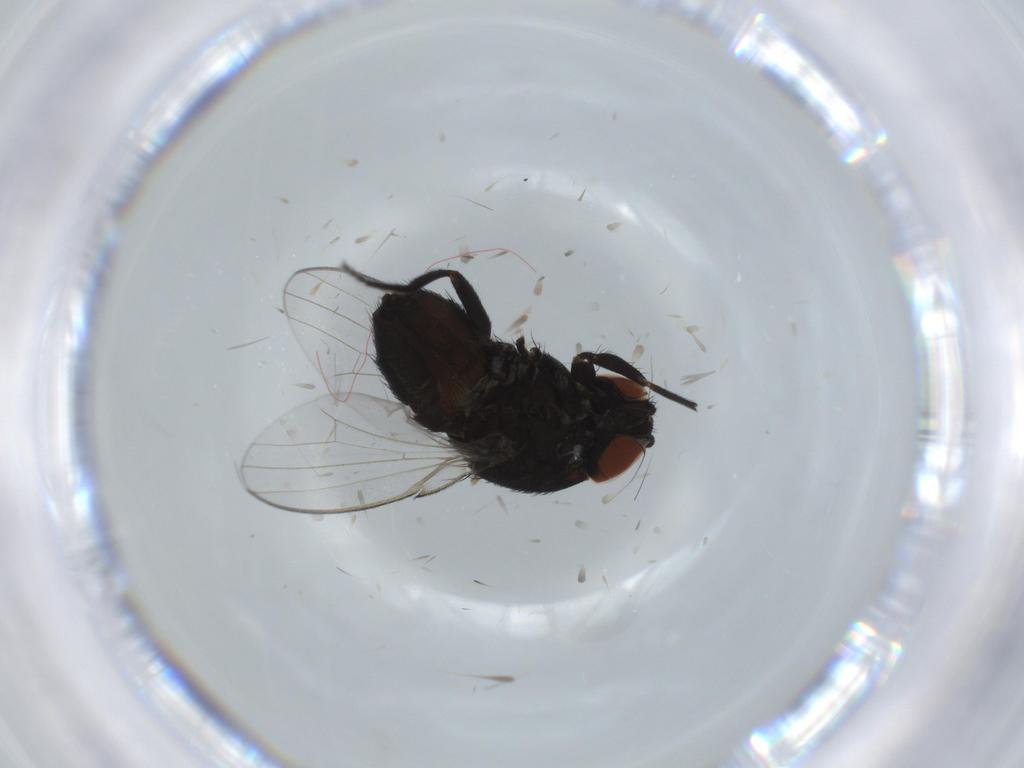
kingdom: Animalia
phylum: Arthropoda
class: Insecta
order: Diptera
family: Milichiidae
